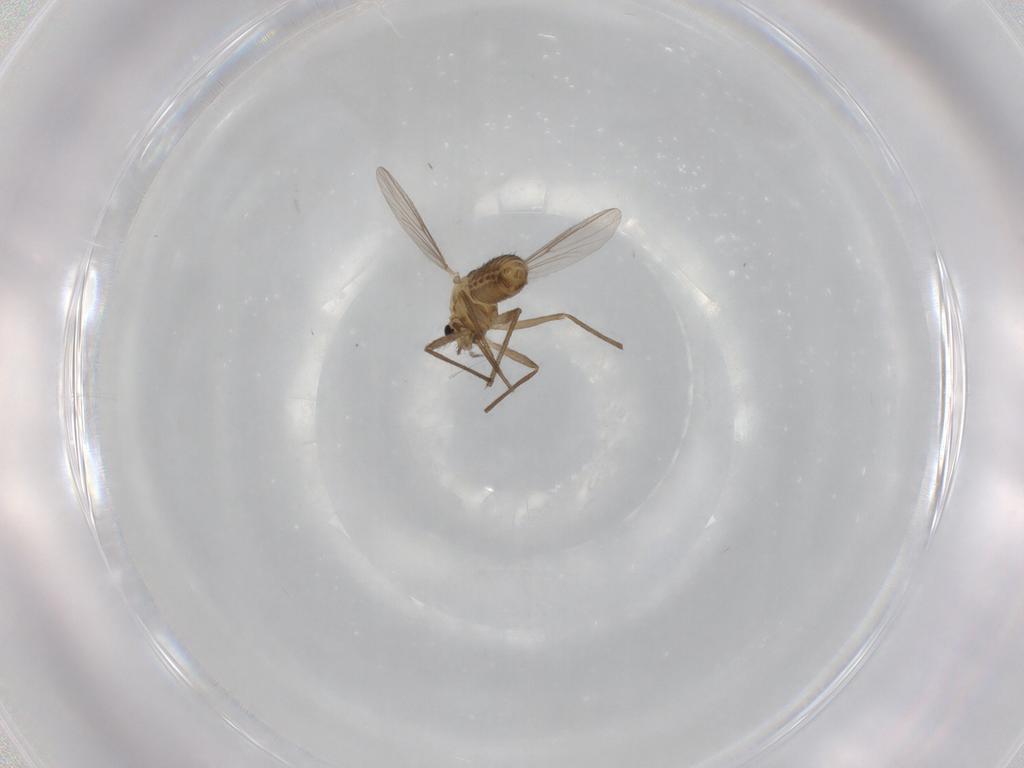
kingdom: Animalia
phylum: Arthropoda
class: Insecta
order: Diptera
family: Chironomidae
